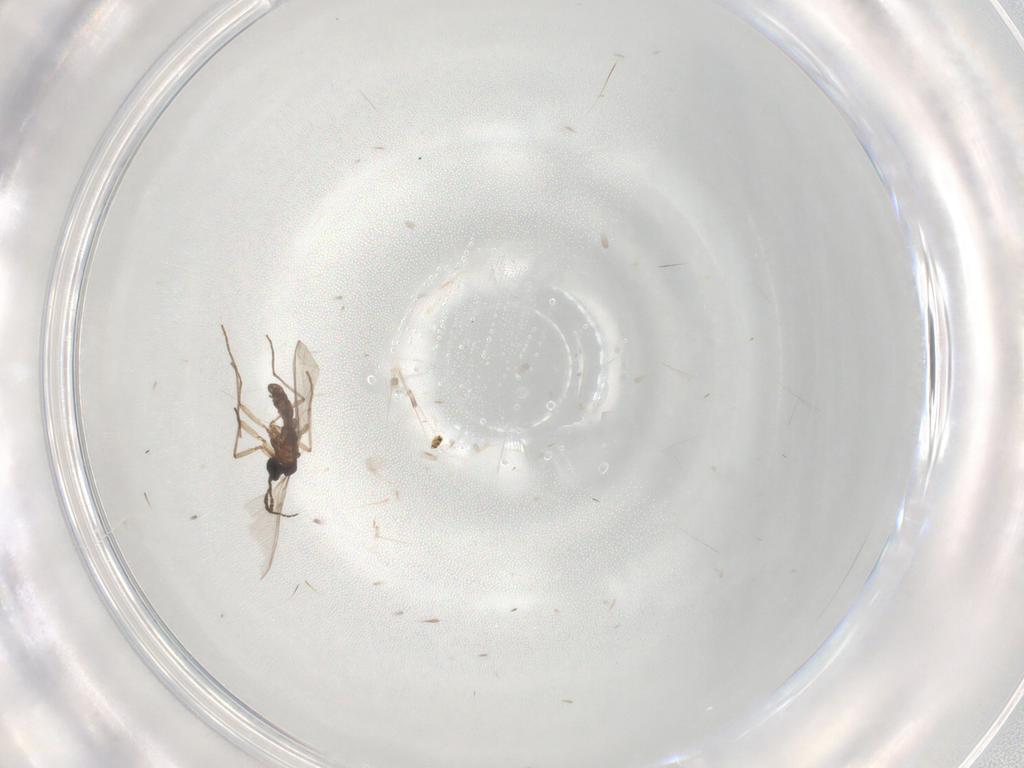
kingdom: Animalia
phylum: Arthropoda
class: Insecta
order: Diptera
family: Sciaridae
